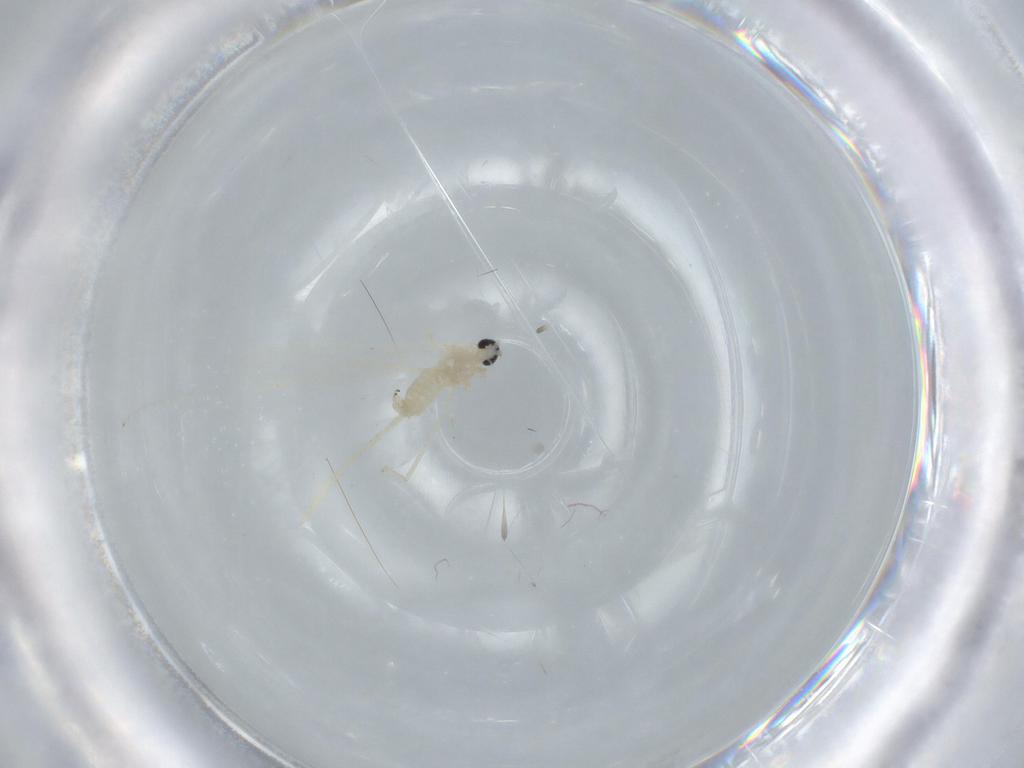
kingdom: Animalia
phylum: Arthropoda
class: Insecta
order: Diptera
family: Cecidomyiidae
